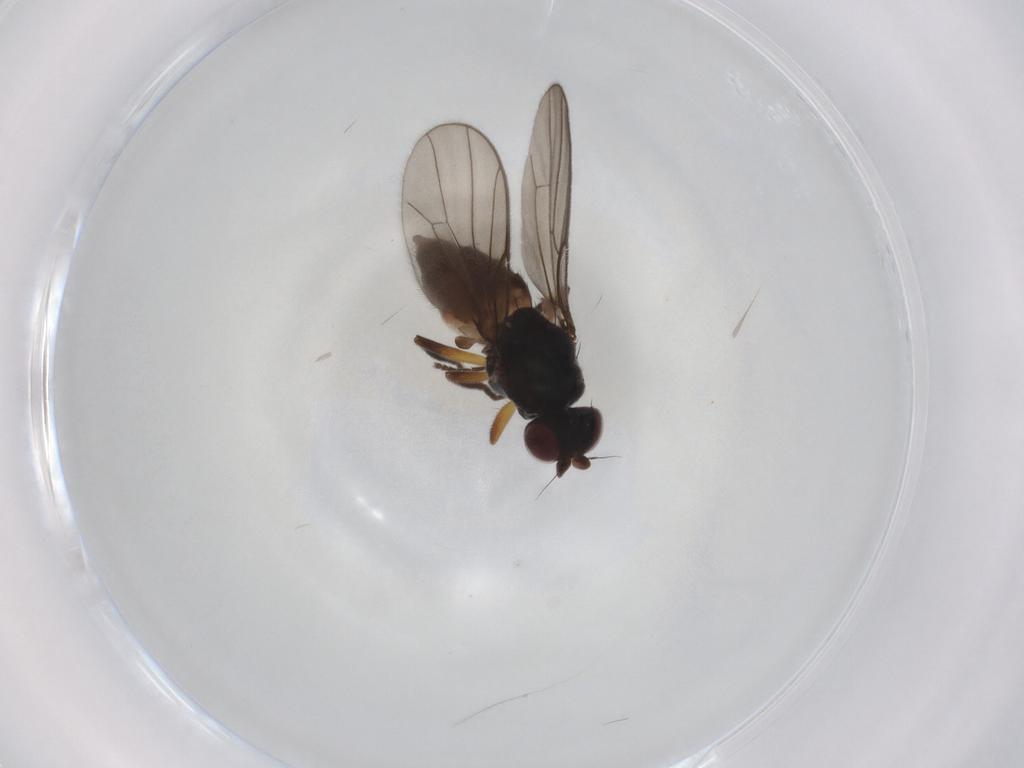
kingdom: Animalia
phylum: Arthropoda
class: Insecta
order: Diptera
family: Chloropidae
